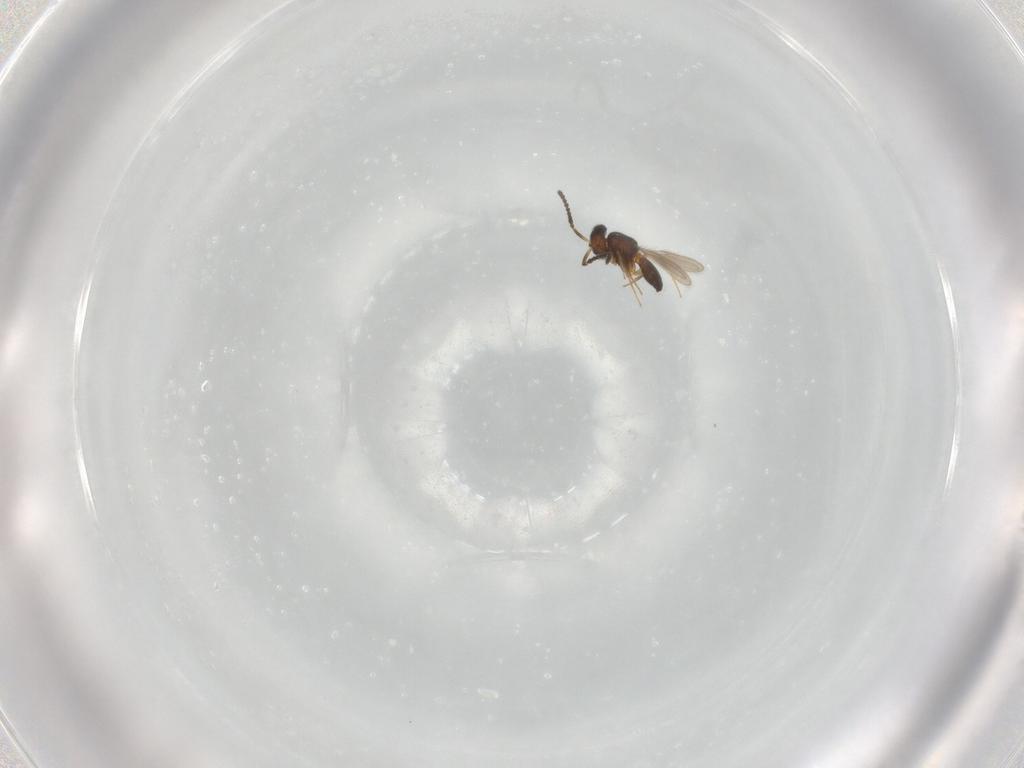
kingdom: Animalia
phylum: Arthropoda
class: Insecta
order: Hymenoptera
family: Scelionidae
